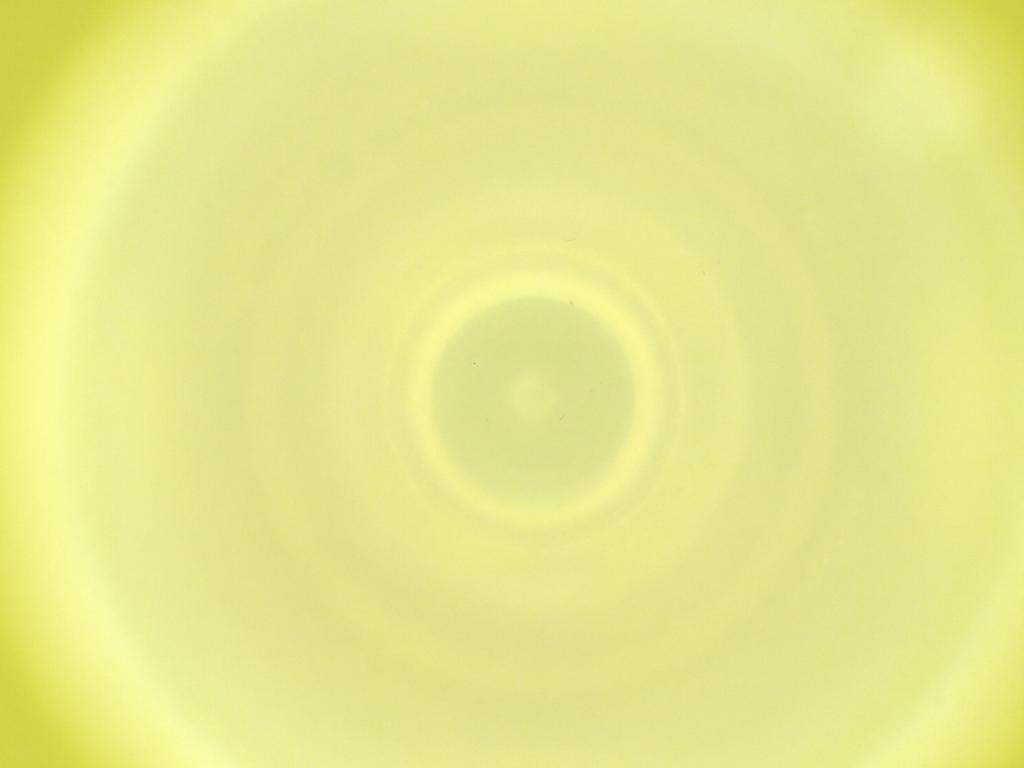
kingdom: Animalia
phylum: Arthropoda
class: Insecta
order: Diptera
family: Cecidomyiidae
